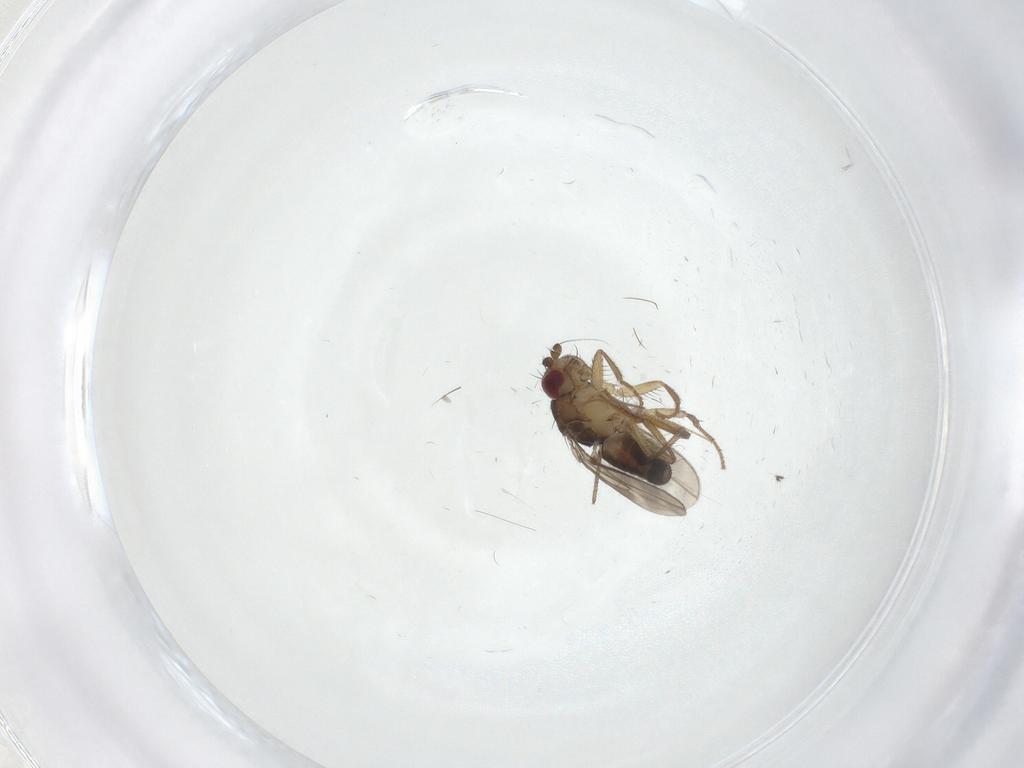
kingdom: Animalia
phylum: Arthropoda
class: Insecta
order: Diptera
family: Sphaeroceridae
